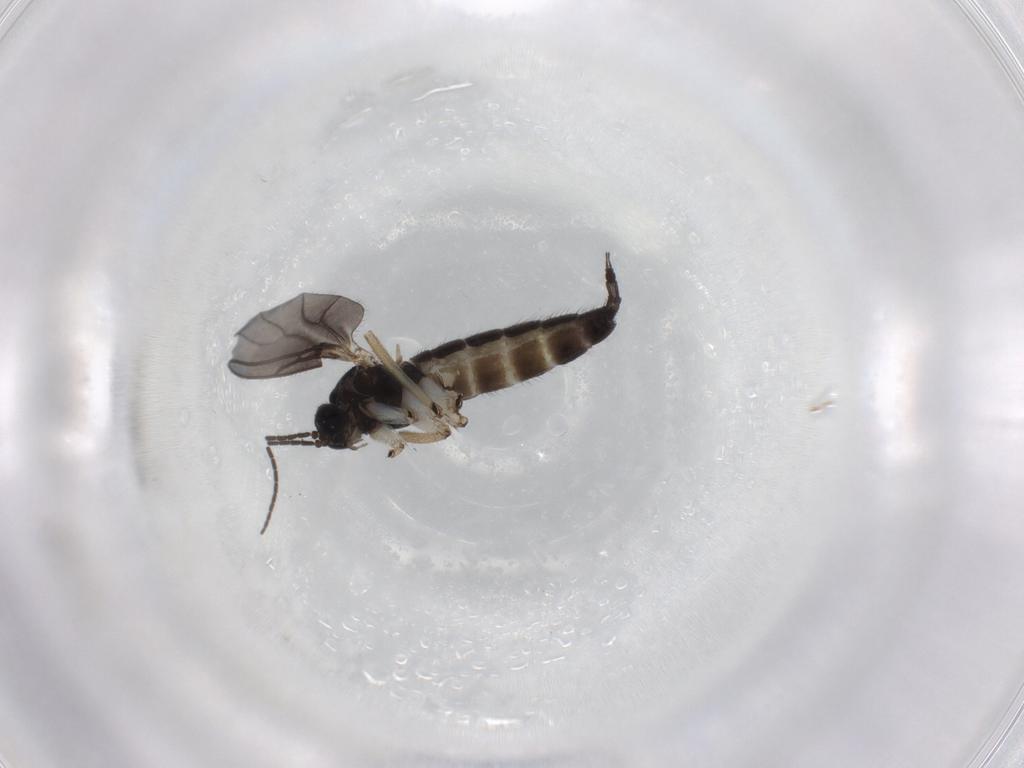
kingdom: Animalia
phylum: Arthropoda
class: Insecta
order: Diptera
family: Sciaridae
